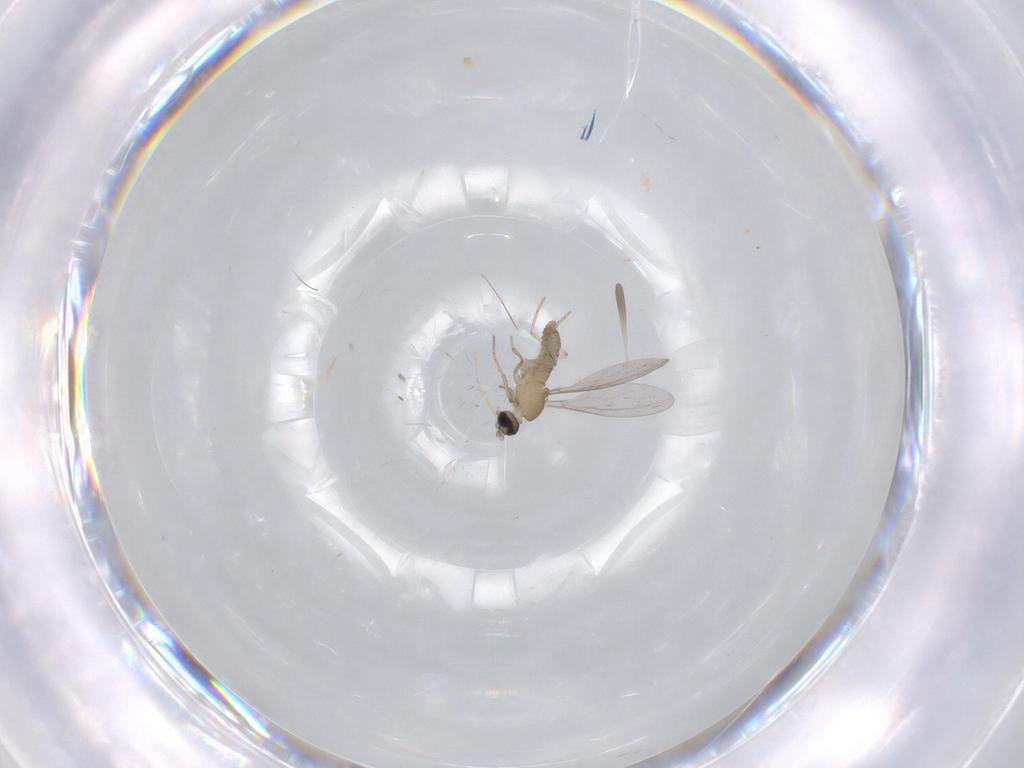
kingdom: Animalia
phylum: Arthropoda
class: Insecta
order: Diptera
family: Cecidomyiidae
